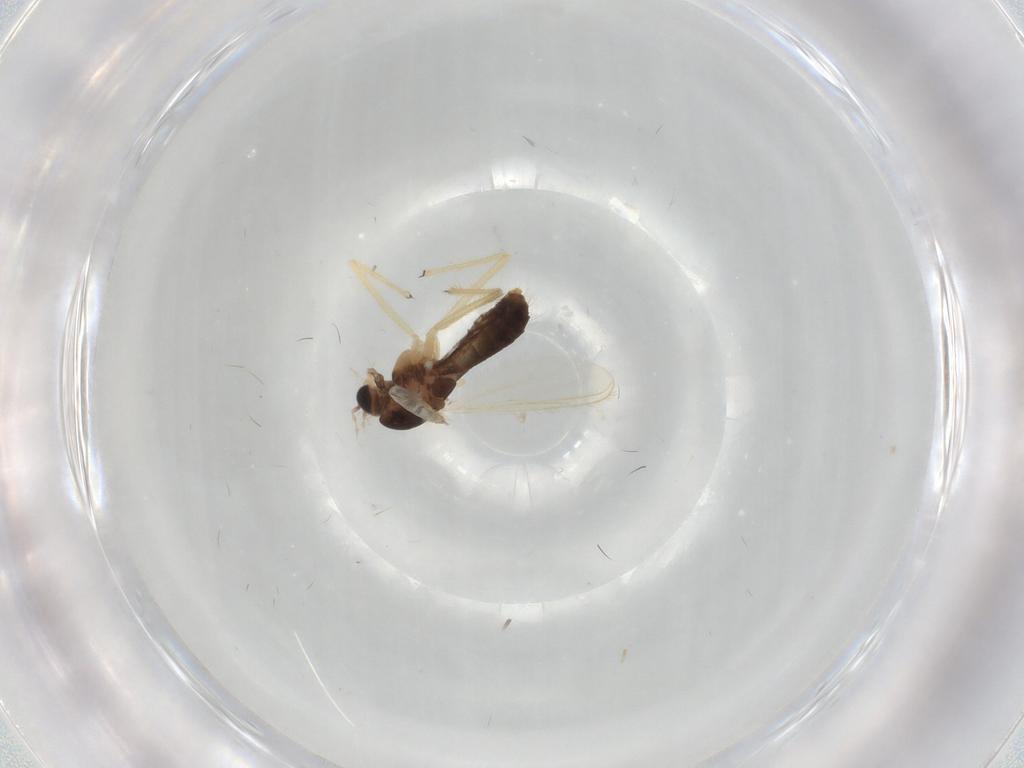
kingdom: Animalia
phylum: Arthropoda
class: Insecta
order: Diptera
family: Chironomidae
